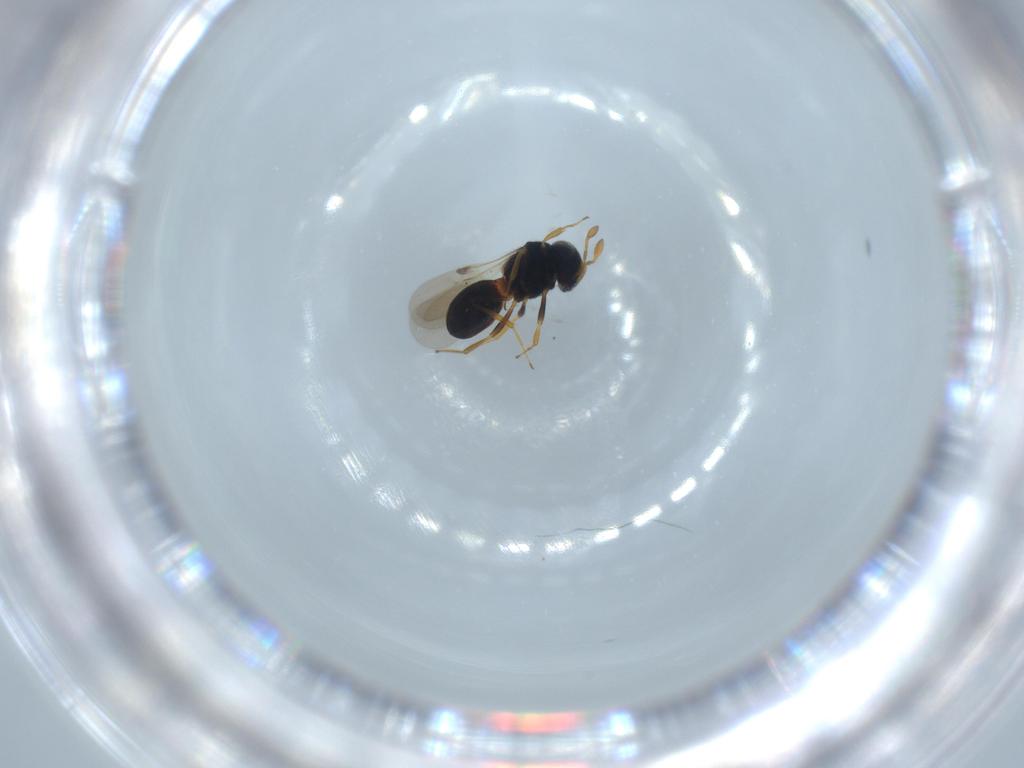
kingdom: Animalia
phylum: Arthropoda
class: Insecta
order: Hymenoptera
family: Scelionidae
